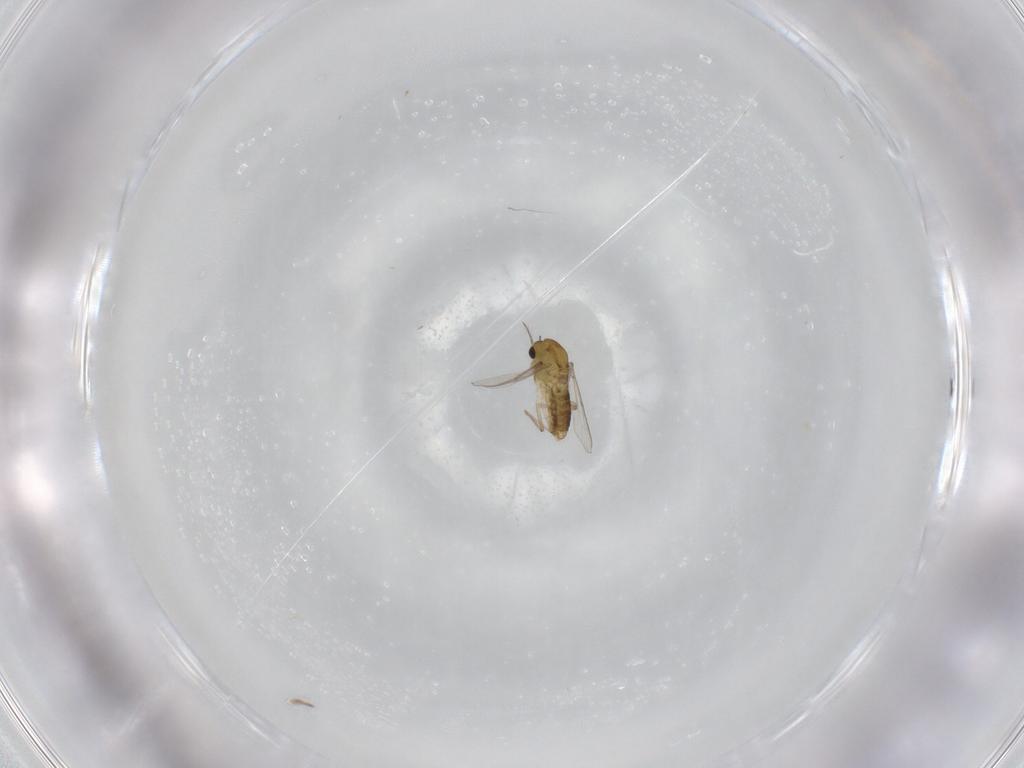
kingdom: Animalia
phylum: Arthropoda
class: Insecta
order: Diptera
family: Chironomidae
